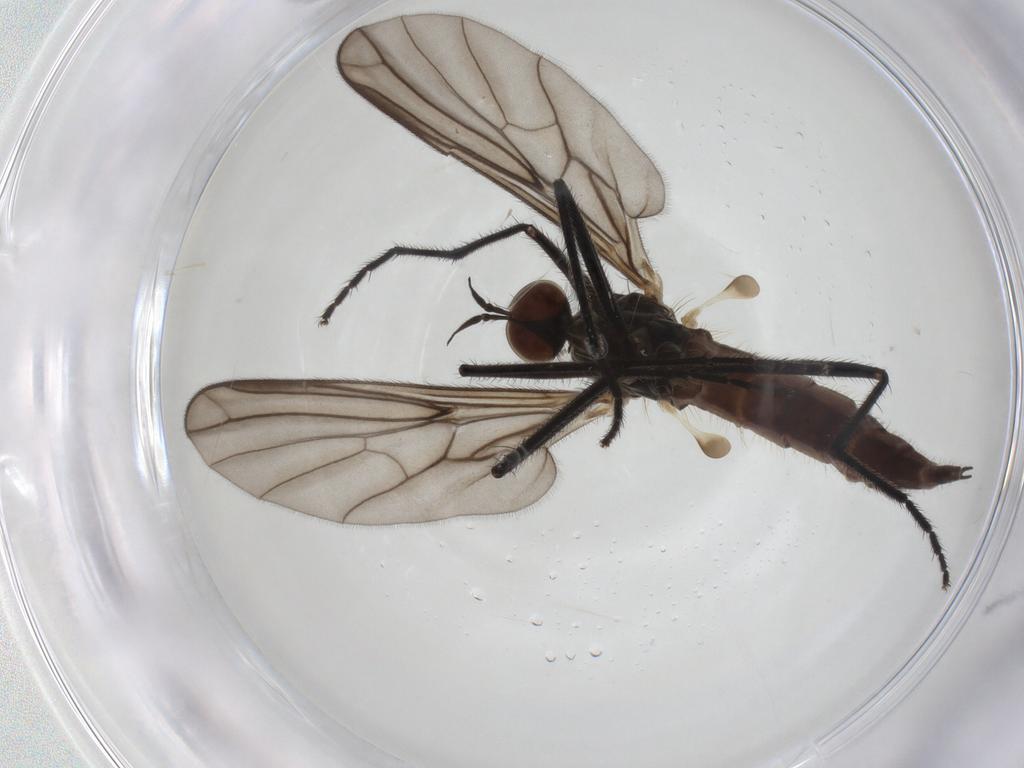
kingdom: Animalia
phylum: Arthropoda
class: Insecta
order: Diptera
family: Empididae
